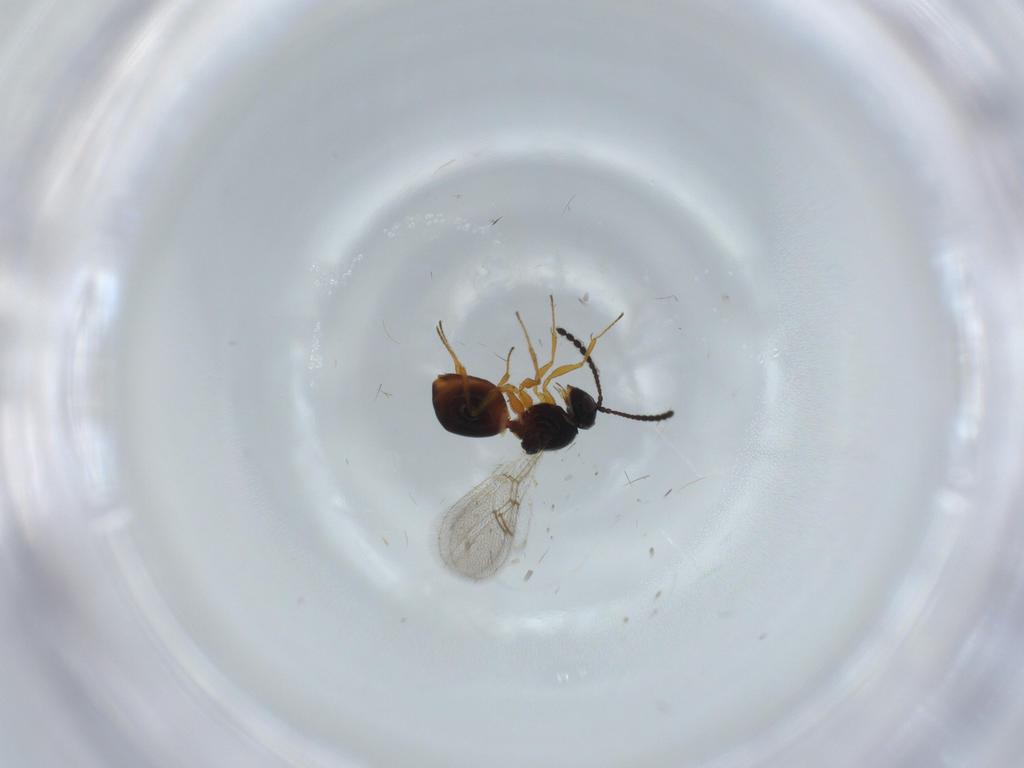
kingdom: Animalia
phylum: Arthropoda
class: Insecta
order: Hymenoptera
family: Figitidae
